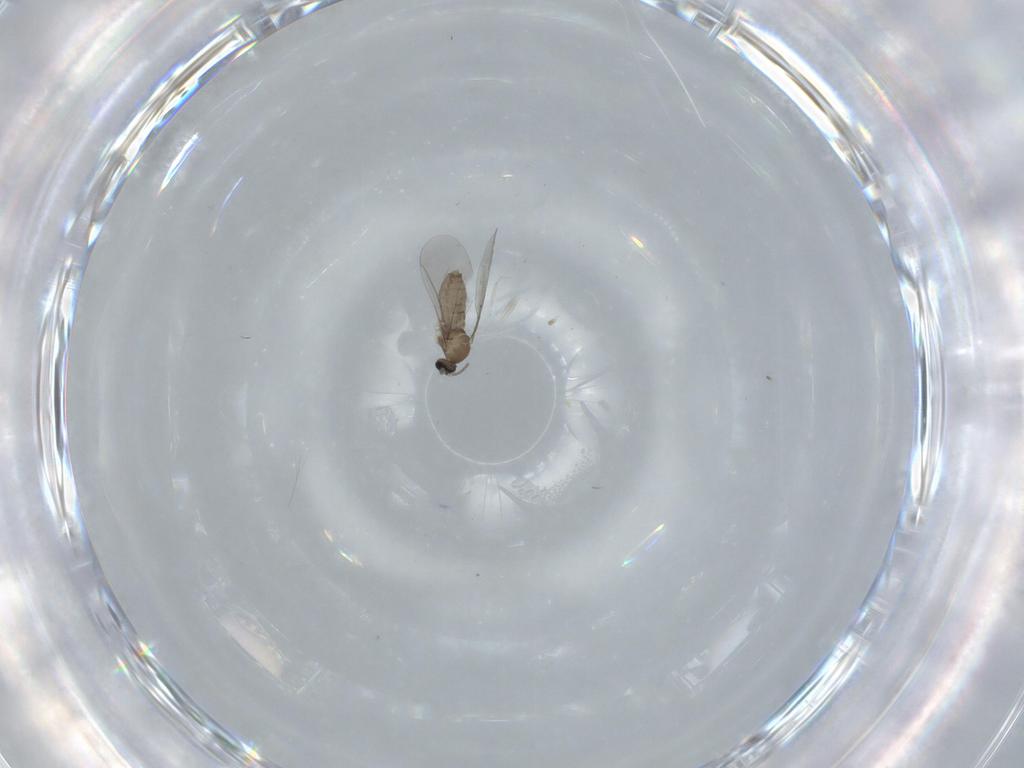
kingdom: Animalia
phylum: Arthropoda
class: Insecta
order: Diptera
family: Cecidomyiidae
